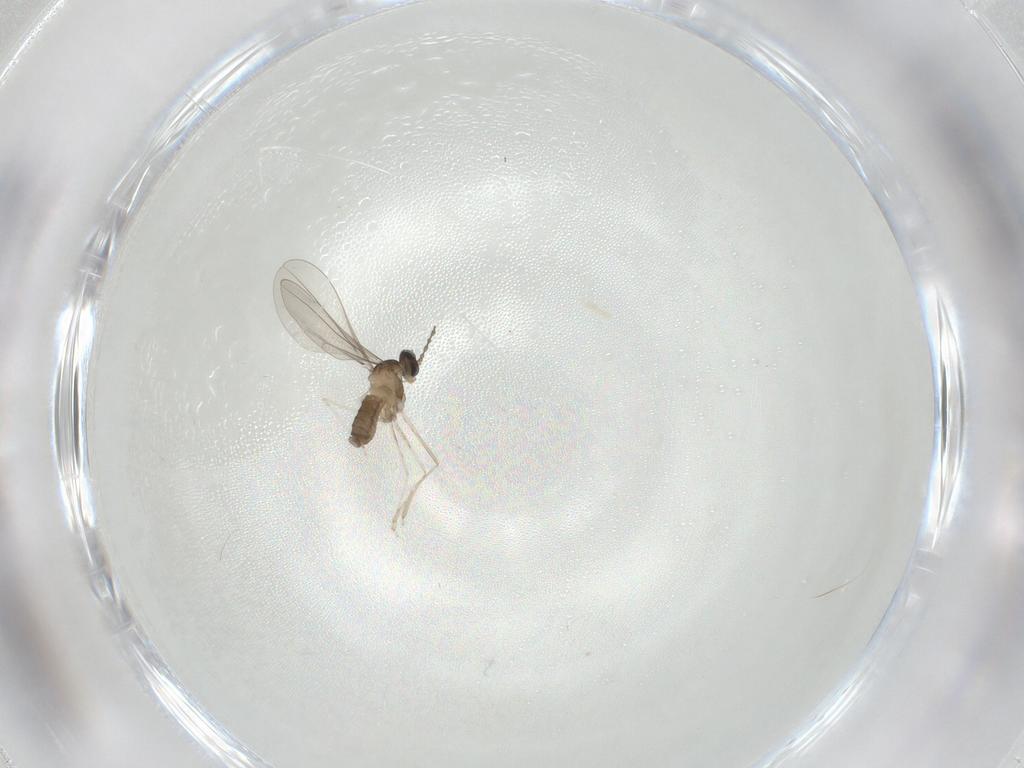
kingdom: Animalia
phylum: Arthropoda
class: Insecta
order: Diptera
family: Cecidomyiidae
